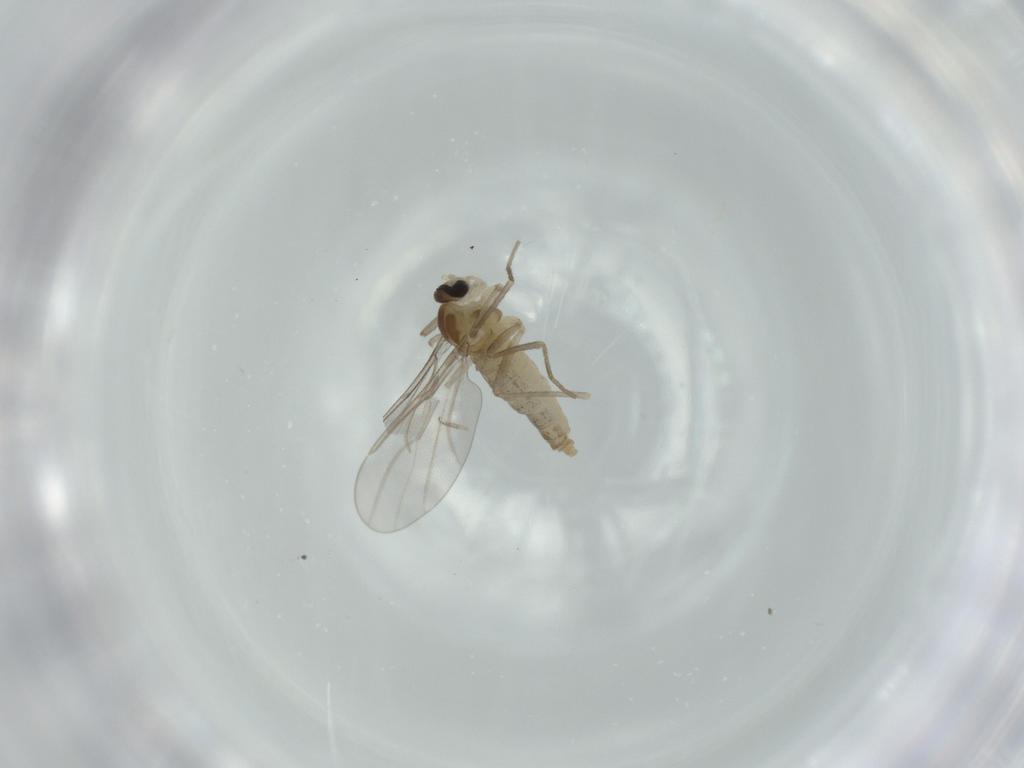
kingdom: Animalia
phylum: Arthropoda
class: Insecta
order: Diptera
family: Cecidomyiidae
